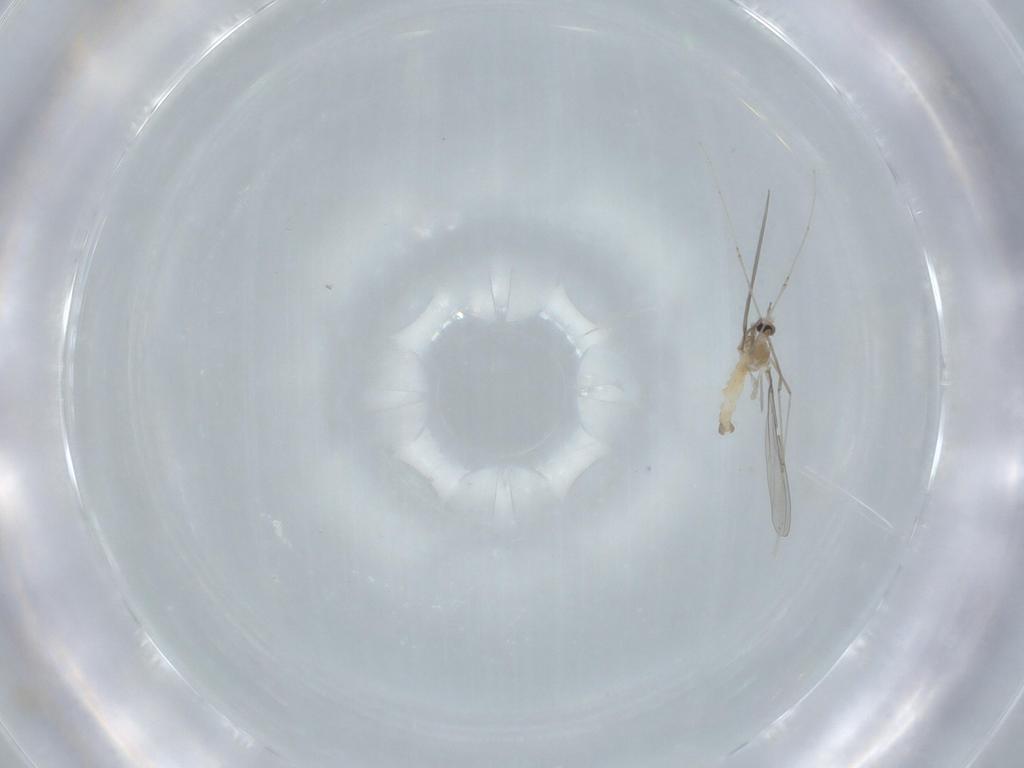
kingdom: Animalia
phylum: Arthropoda
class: Insecta
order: Diptera
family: Cecidomyiidae
